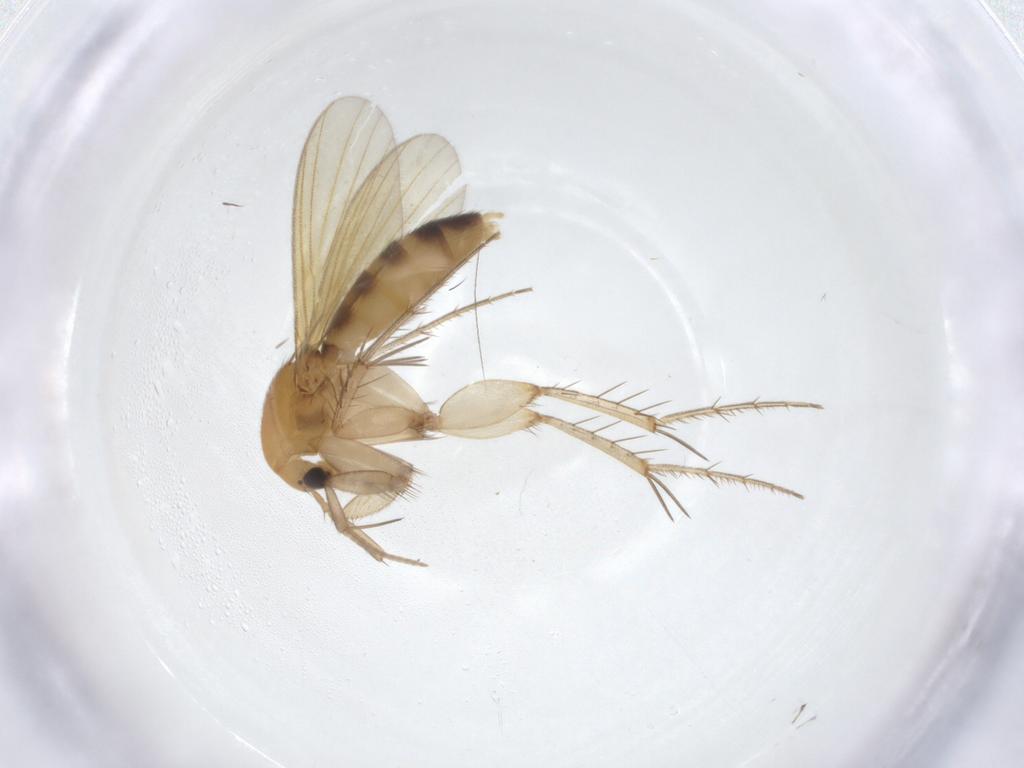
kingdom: Animalia
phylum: Arthropoda
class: Insecta
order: Diptera
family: Mycetophilidae
